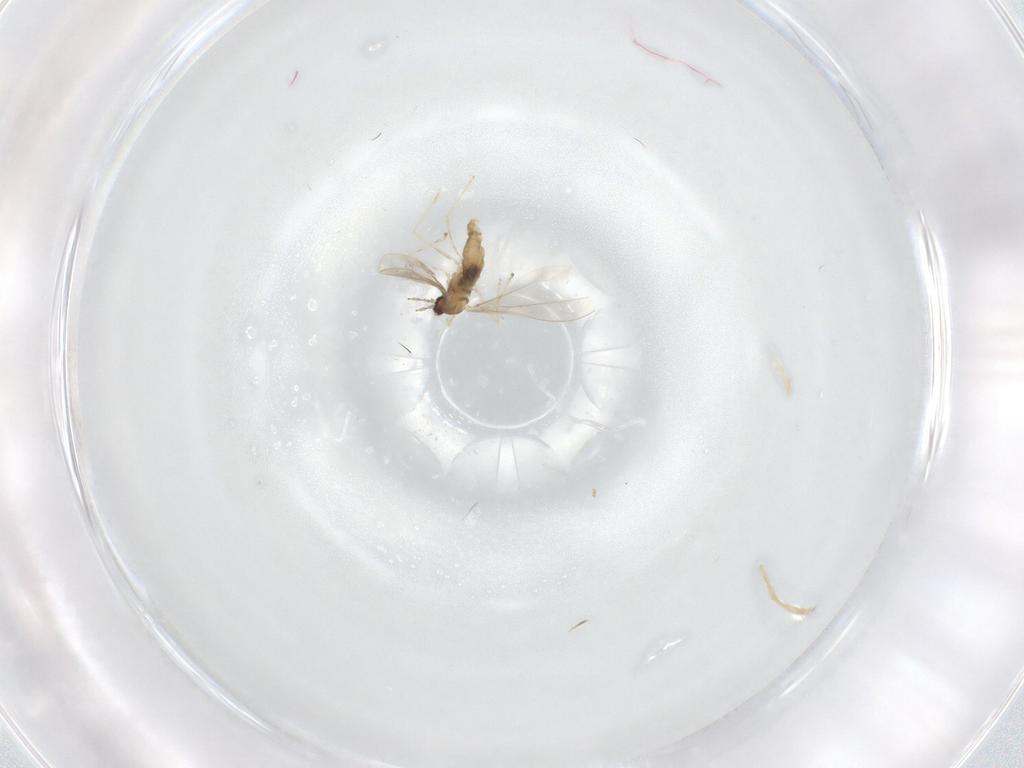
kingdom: Animalia
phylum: Arthropoda
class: Insecta
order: Diptera
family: Cecidomyiidae
